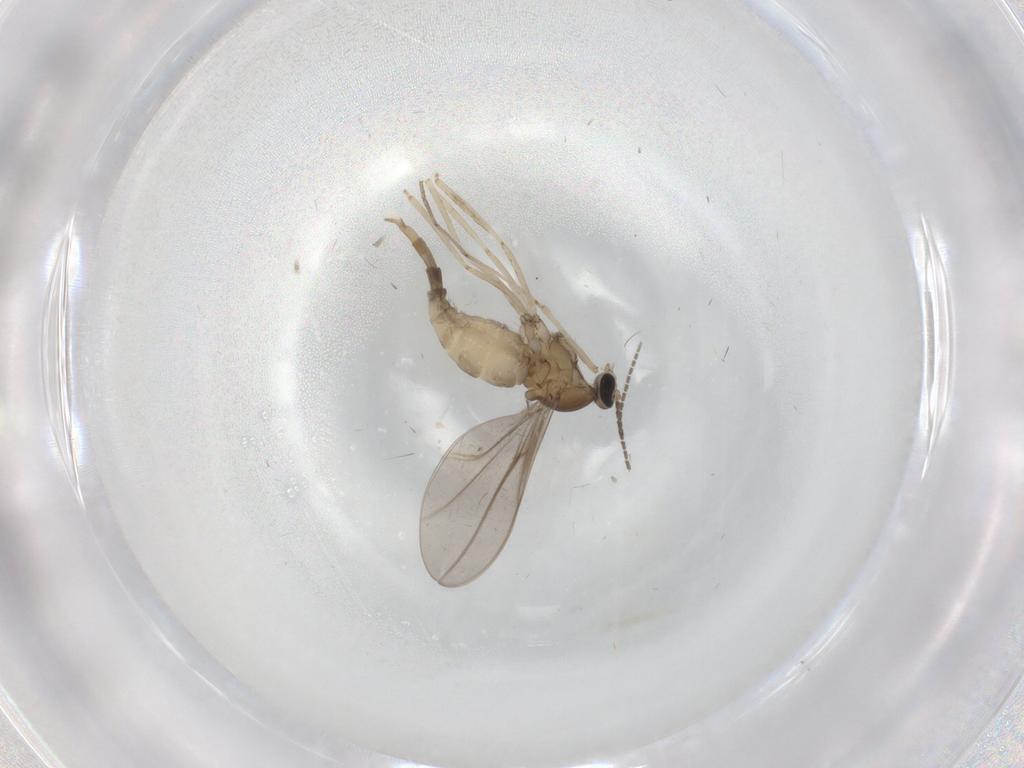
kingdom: Animalia
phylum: Arthropoda
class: Insecta
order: Diptera
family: Cecidomyiidae
